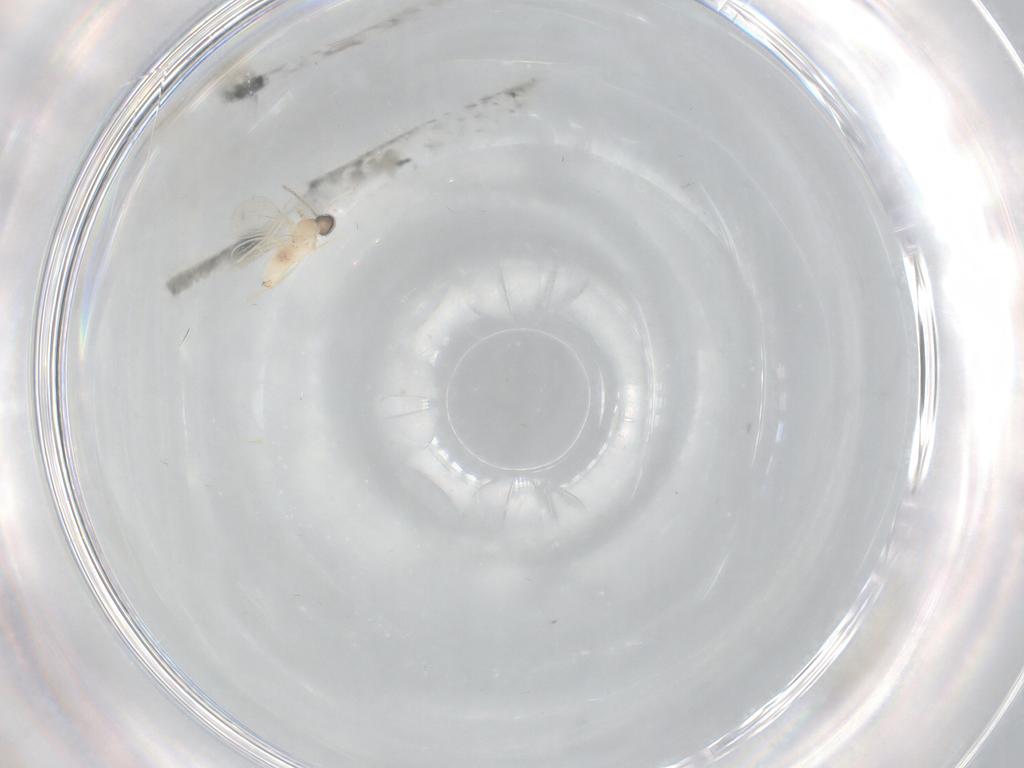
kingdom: Animalia
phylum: Arthropoda
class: Insecta
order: Diptera
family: Cecidomyiidae
